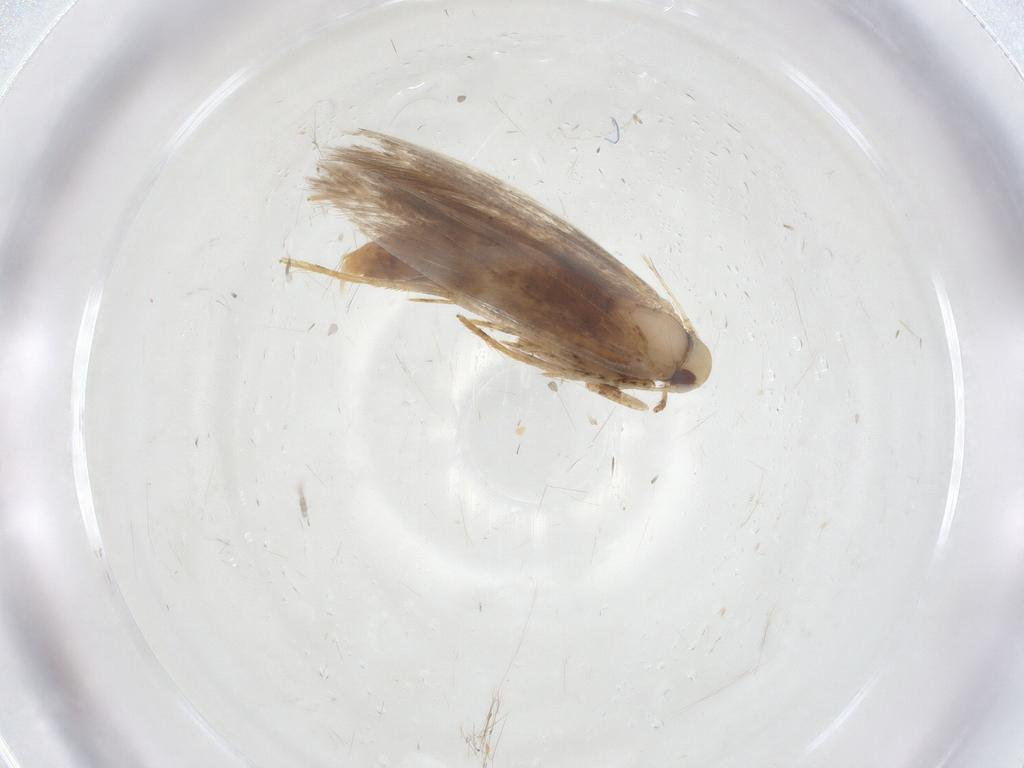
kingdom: Animalia
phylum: Arthropoda
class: Insecta
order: Lepidoptera
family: Gracillariidae
